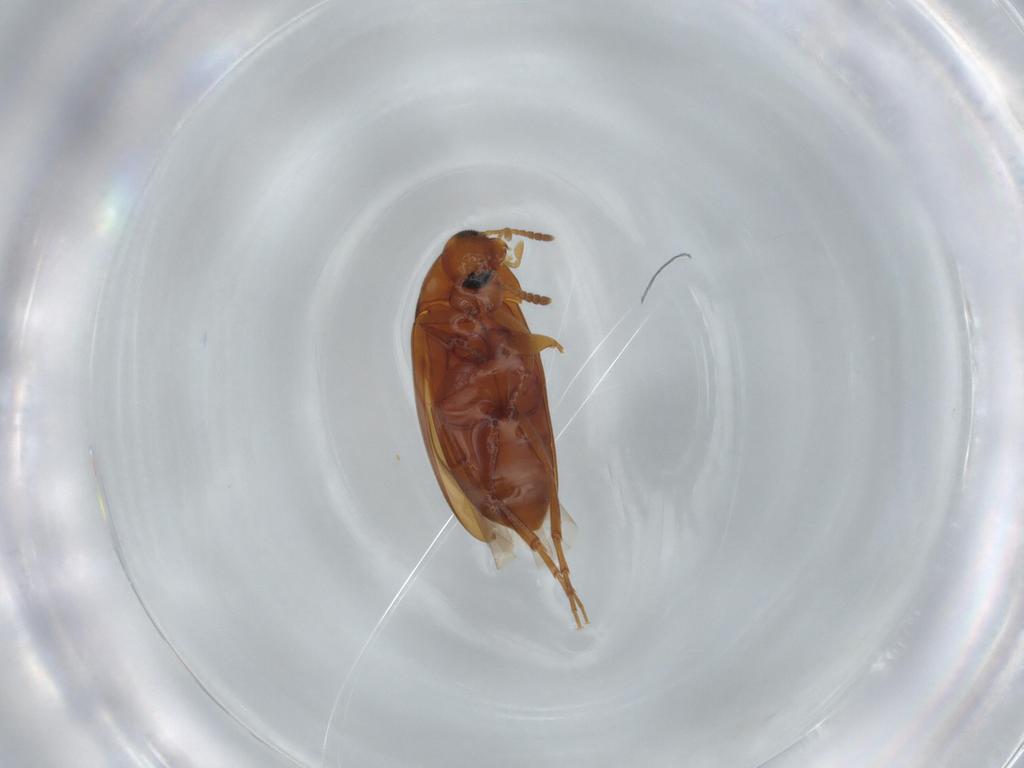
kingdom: Animalia
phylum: Arthropoda
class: Insecta
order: Coleoptera
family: Scraptiidae
